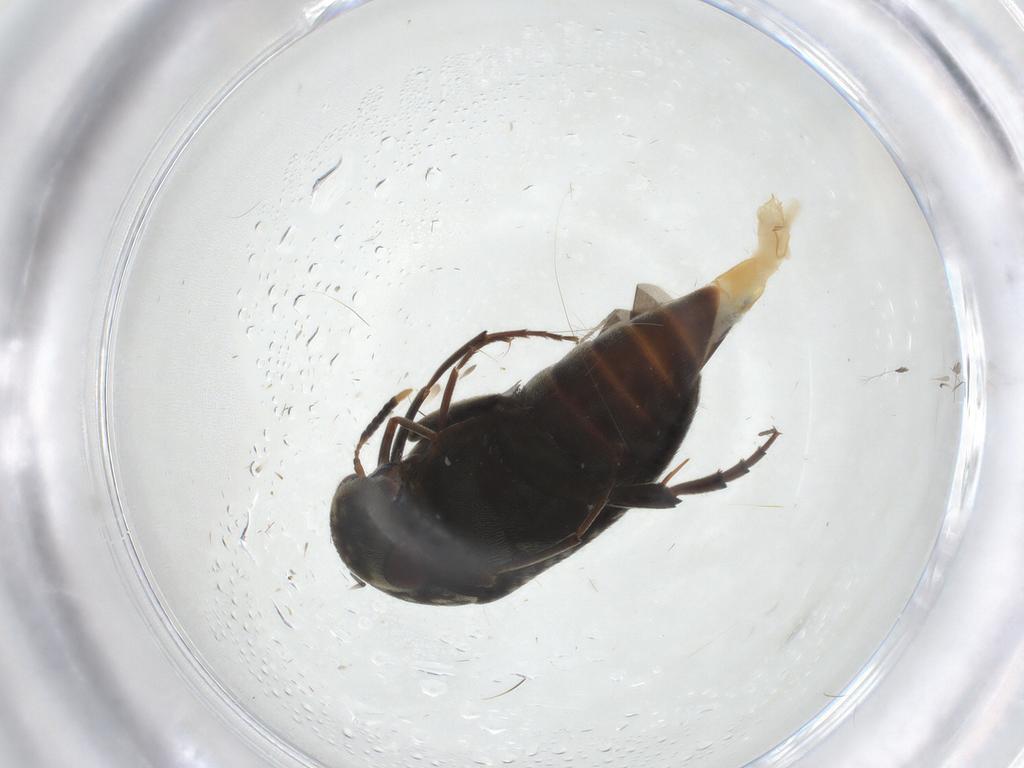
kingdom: Animalia
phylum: Arthropoda
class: Insecta
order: Coleoptera
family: Mordellidae
